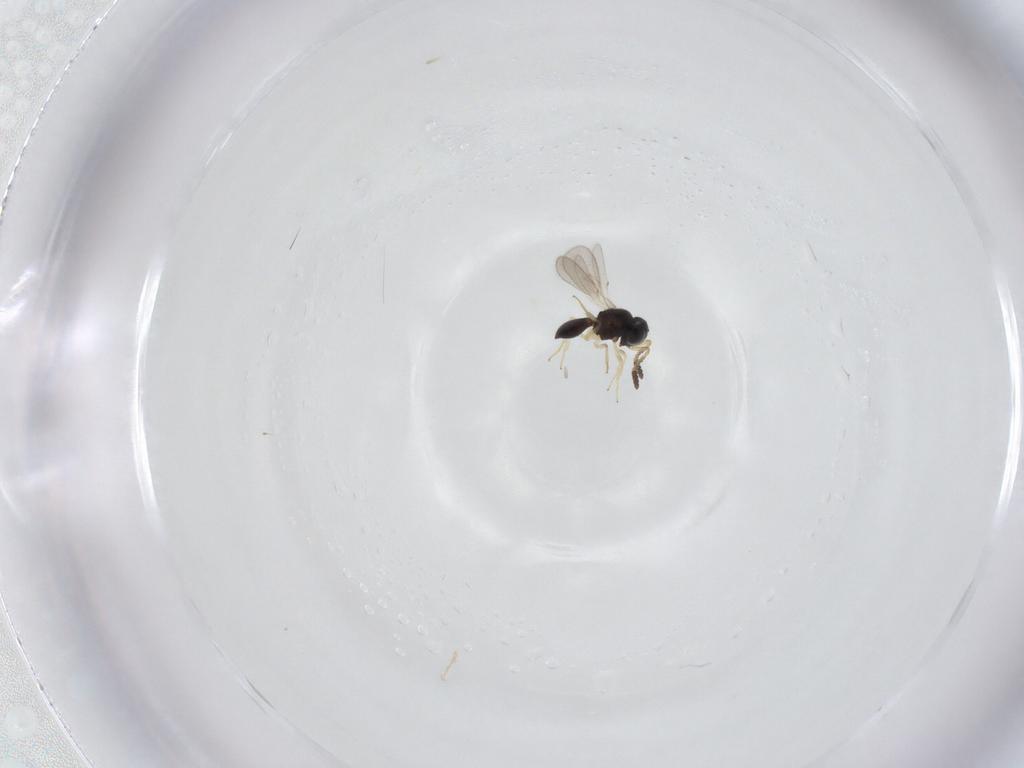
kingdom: Animalia
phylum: Arthropoda
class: Insecta
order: Hymenoptera
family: Scelionidae
